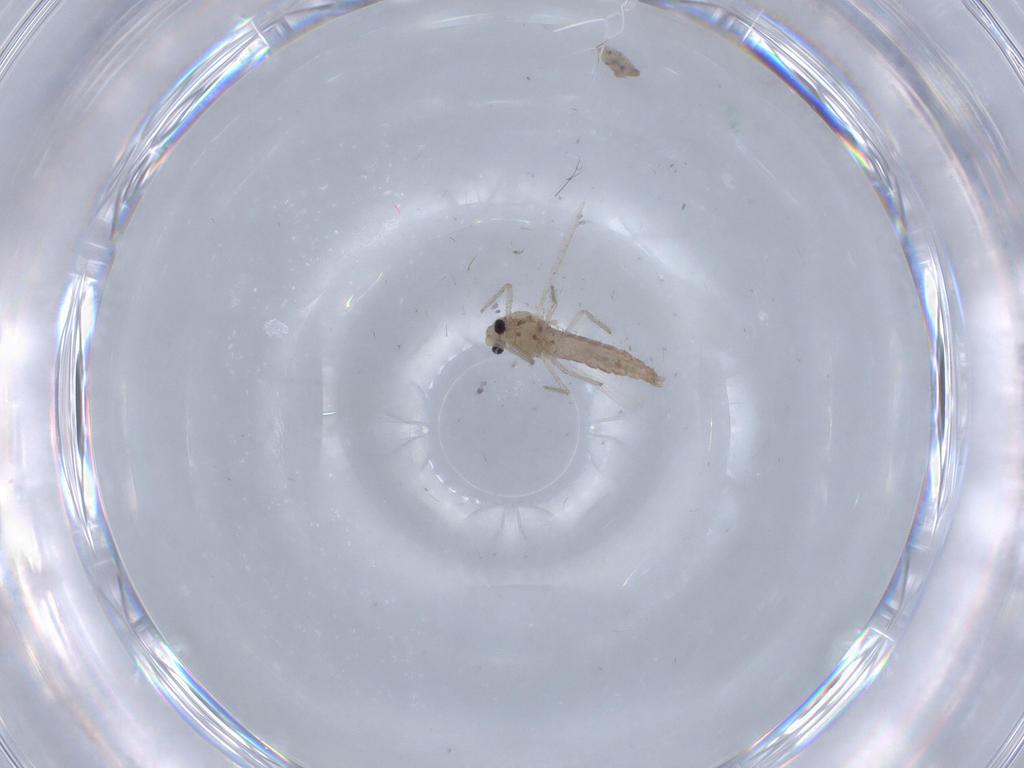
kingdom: Animalia
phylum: Arthropoda
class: Insecta
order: Diptera
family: Chironomidae
